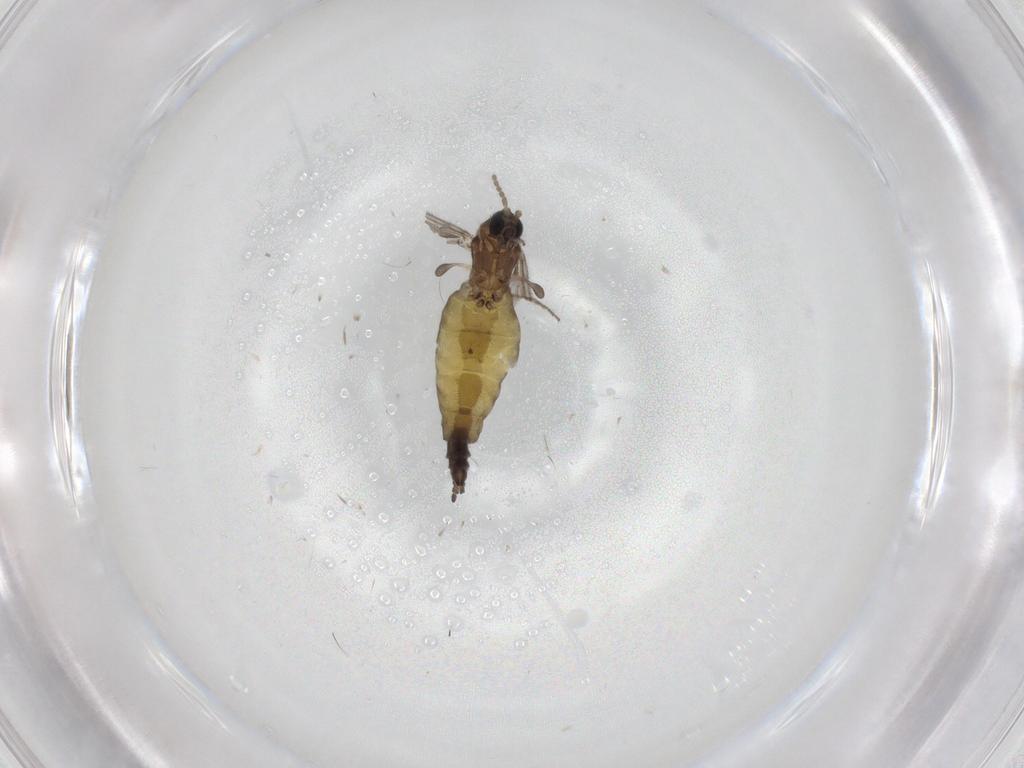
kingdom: Animalia
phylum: Arthropoda
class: Insecta
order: Diptera
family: Sciaridae
